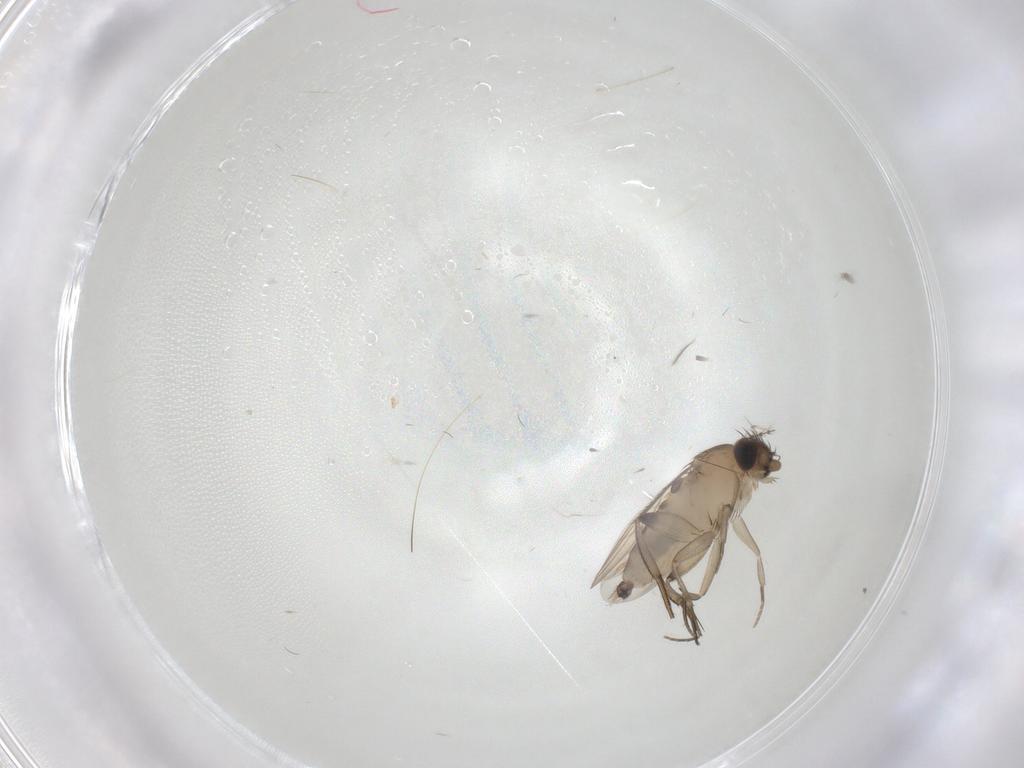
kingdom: Animalia
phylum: Arthropoda
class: Insecta
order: Diptera
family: Phoridae
